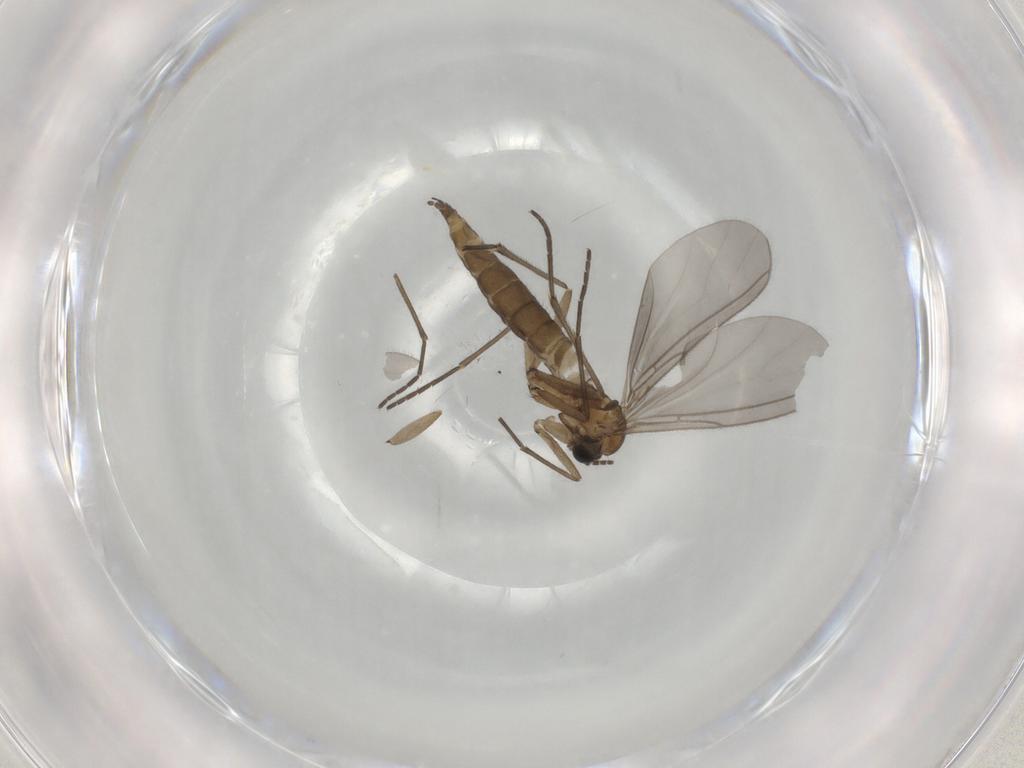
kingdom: Animalia
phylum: Arthropoda
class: Insecta
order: Diptera
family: Sciaridae
